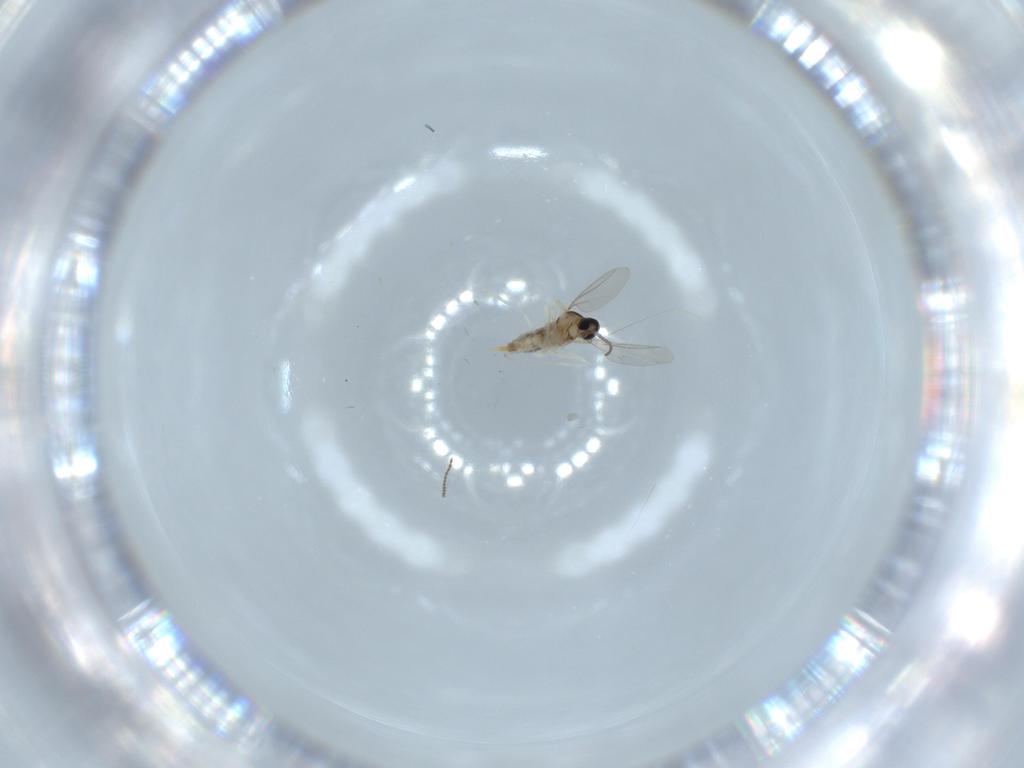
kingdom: Animalia
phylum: Arthropoda
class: Insecta
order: Diptera
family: Cecidomyiidae
